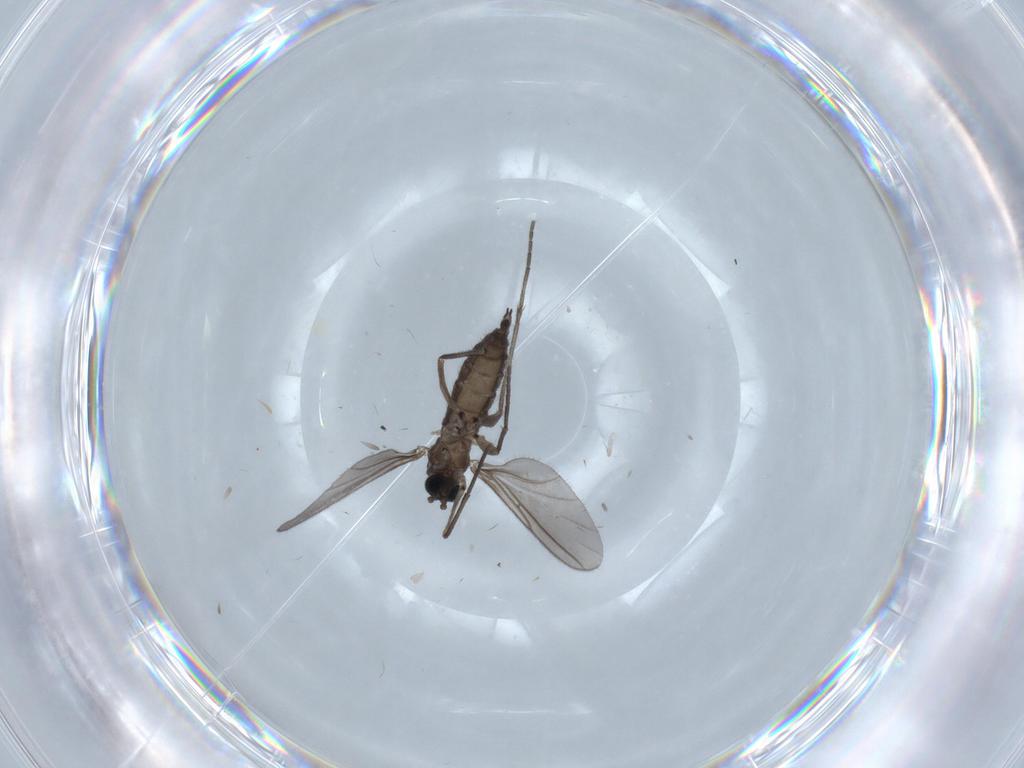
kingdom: Animalia
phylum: Arthropoda
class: Insecta
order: Diptera
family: Sciaridae
